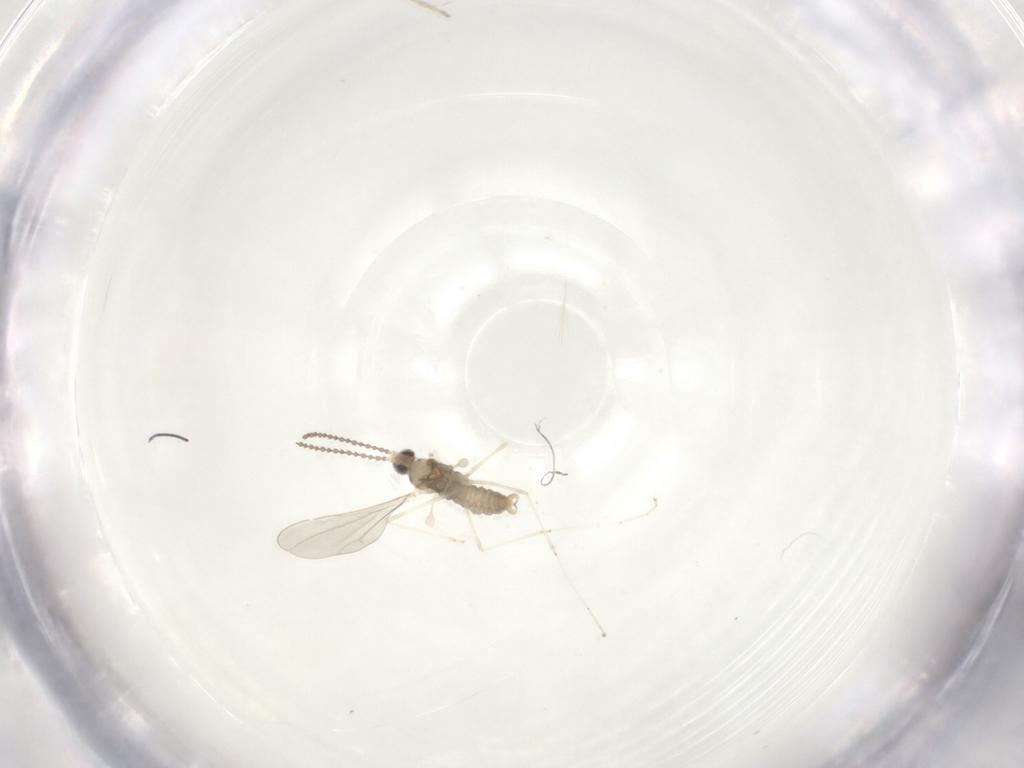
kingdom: Animalia
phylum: Arthropoda
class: Insecta
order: Diptera
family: Cecidomyiidae
